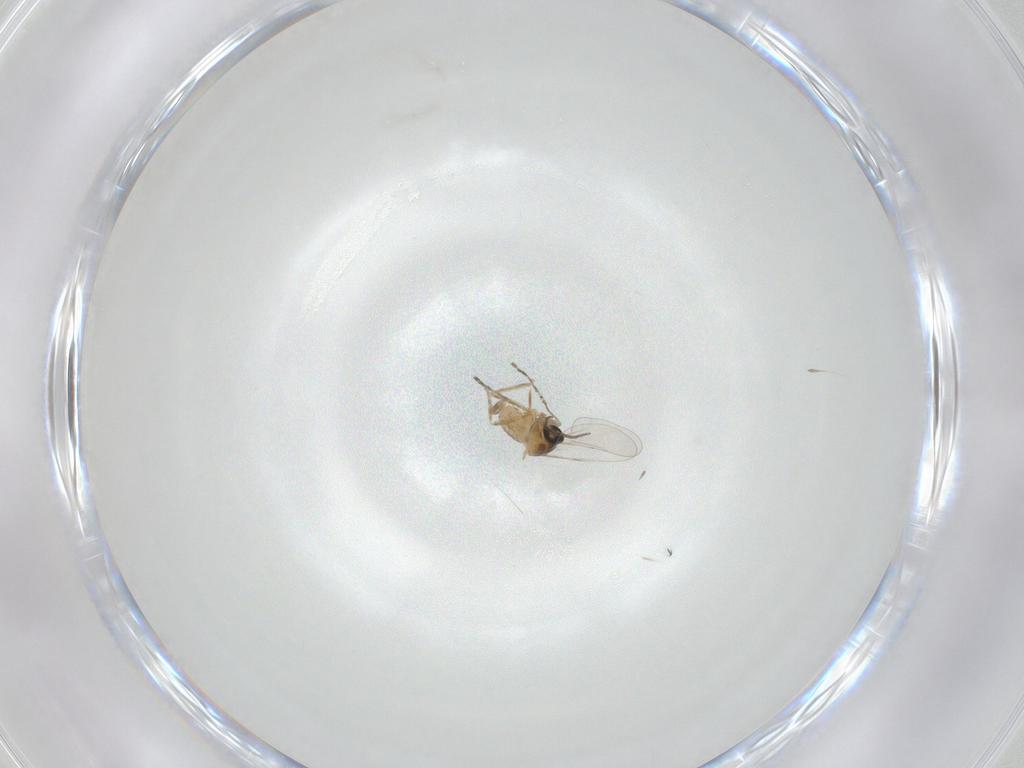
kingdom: Animalia
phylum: Arthropoda
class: Insecta
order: Diptera
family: Cecidomyiidae
